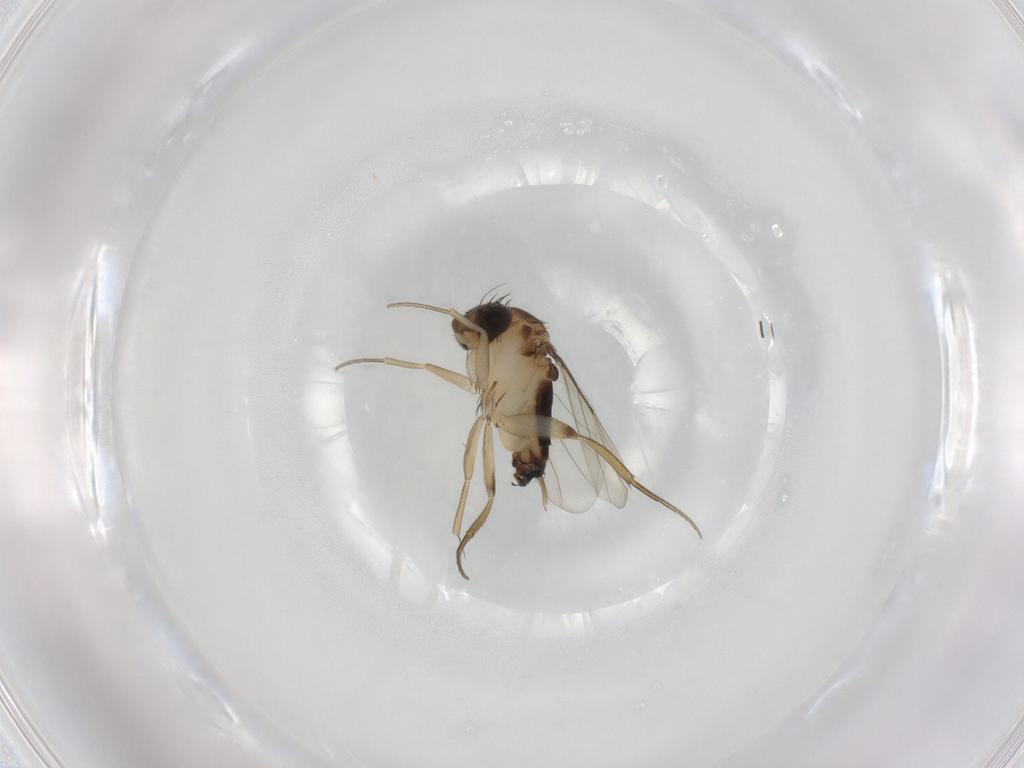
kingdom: Animalia
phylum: Arthropoda
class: Insecta
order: Diptera
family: Phoridae
